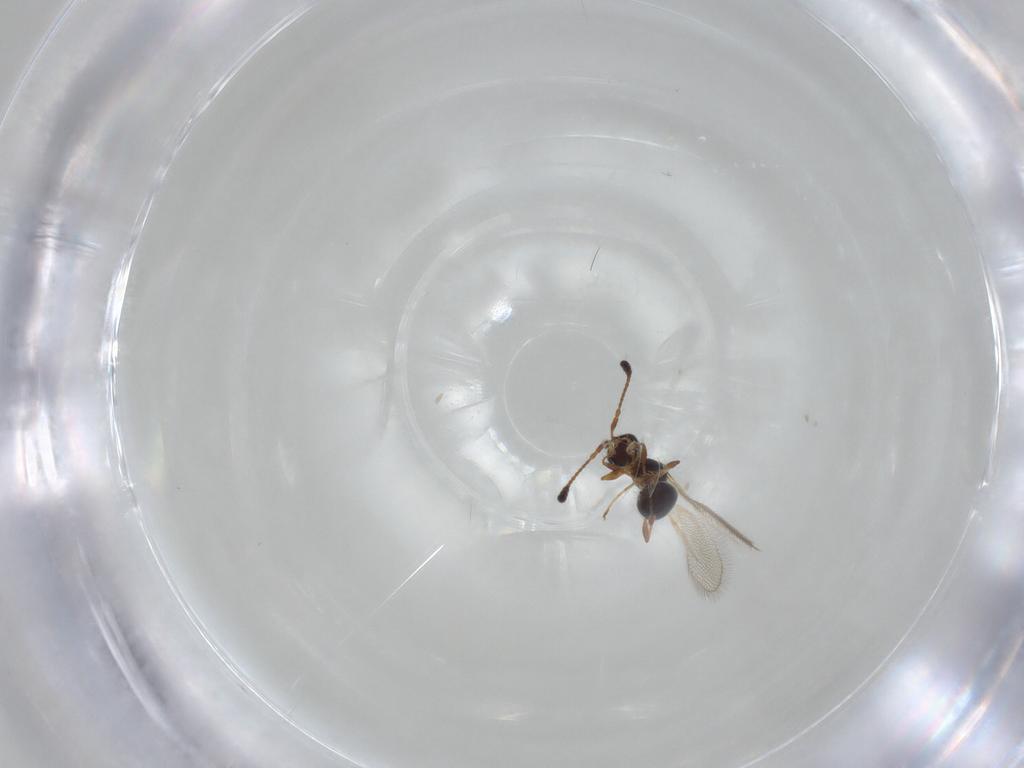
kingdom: Animalia
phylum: Arthropoda
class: Insecta
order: Hymenoptera
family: Diapriidae
